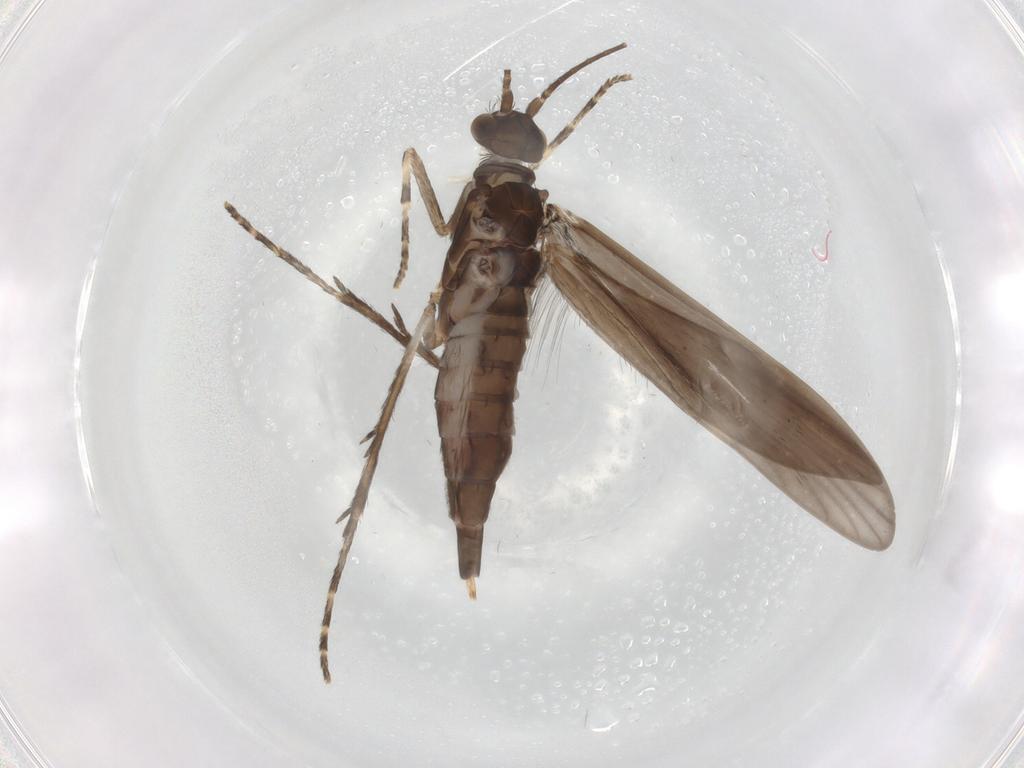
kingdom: Animalia
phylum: Arthropoda
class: Insecta
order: Trichoptera
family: Xiphocentronidae
